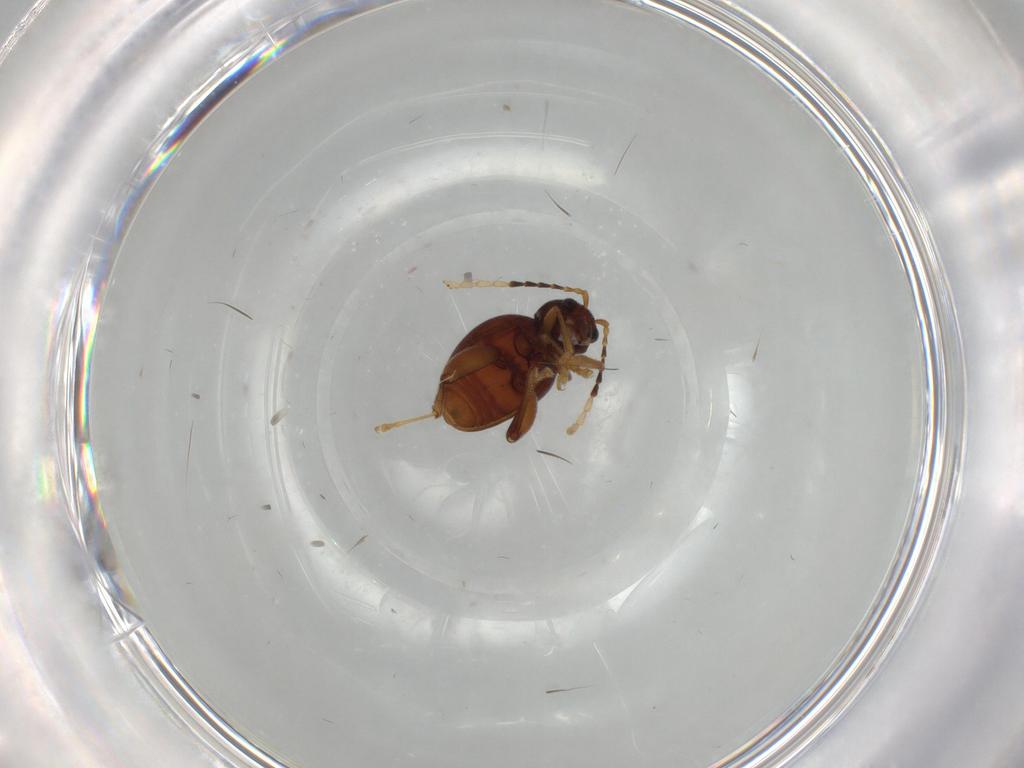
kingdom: Animalia
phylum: Arthropoda
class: Insecta
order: Coleoptera
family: Chrysomelidae
